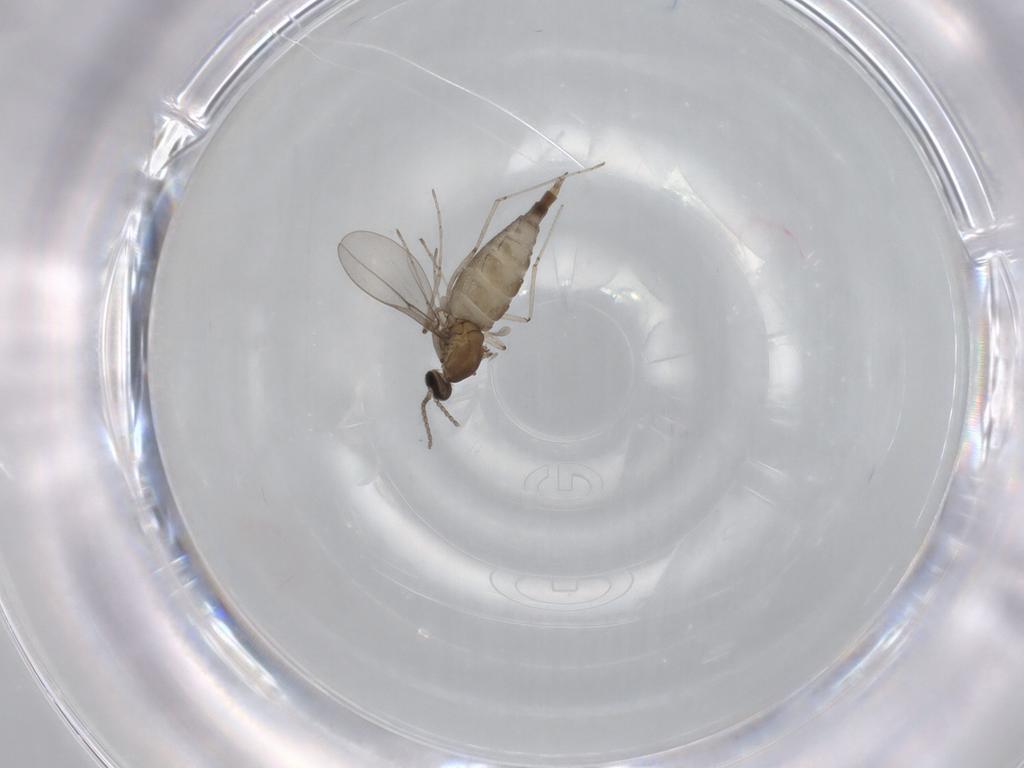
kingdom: Animalia
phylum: Arthropoda
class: Insecta
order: Diptera
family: Cecidomyiidae
